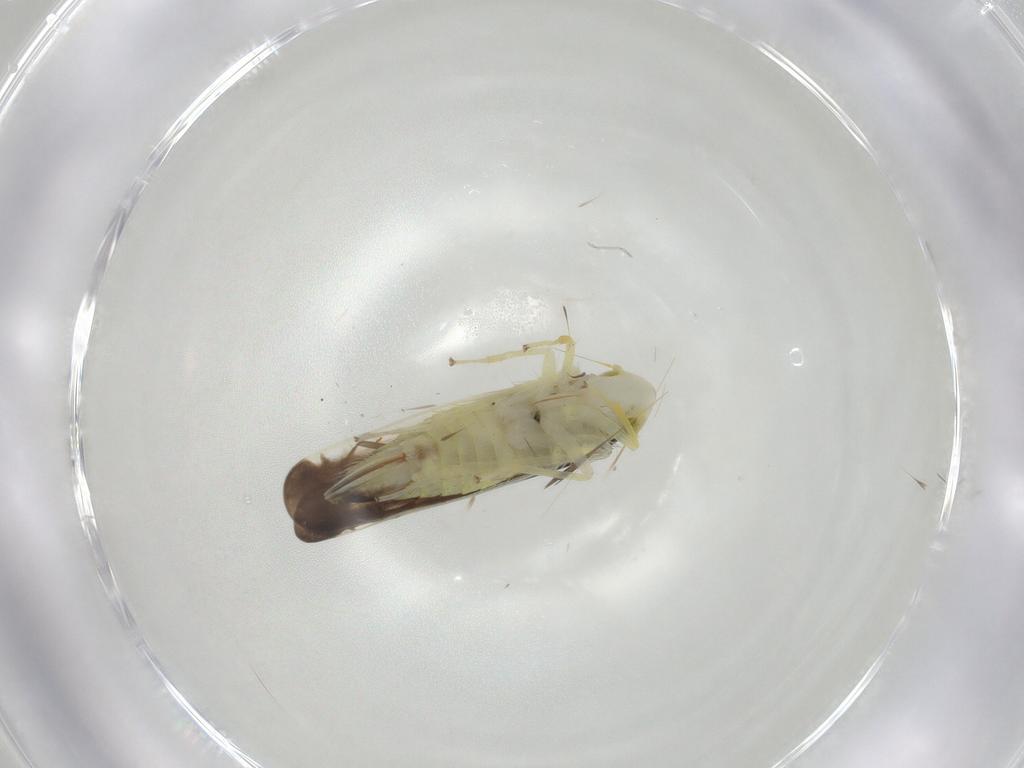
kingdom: Animalia
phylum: Arthropoda
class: Insecta
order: Hemiptera
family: Cicadellidae
